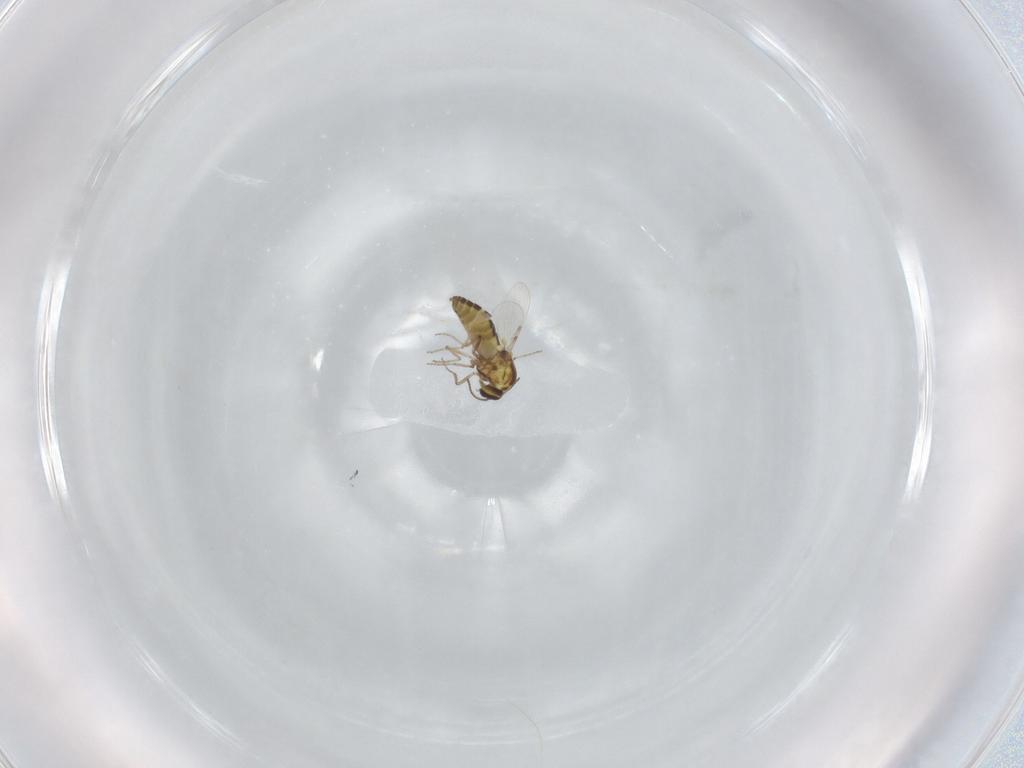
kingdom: Animalia
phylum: Arthropoda
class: Insecta
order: Diptera
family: Ceratopogonidae
